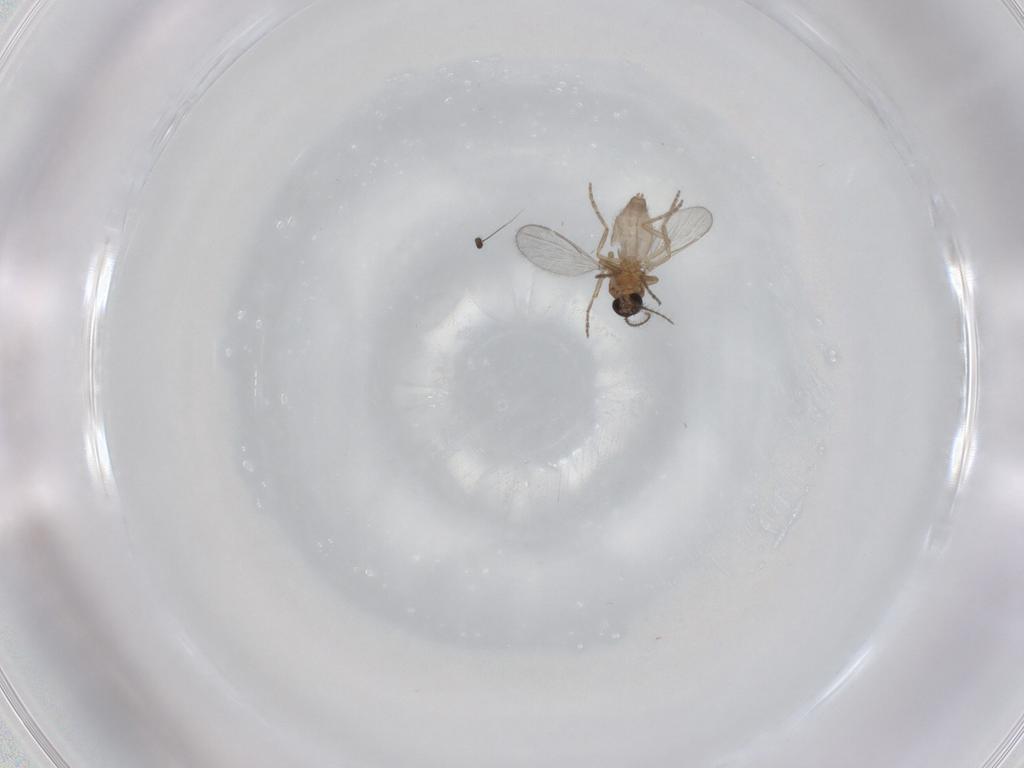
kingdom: Animalia
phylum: Arthropoda
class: Insecta
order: Diptera
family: Dolichopodidae
